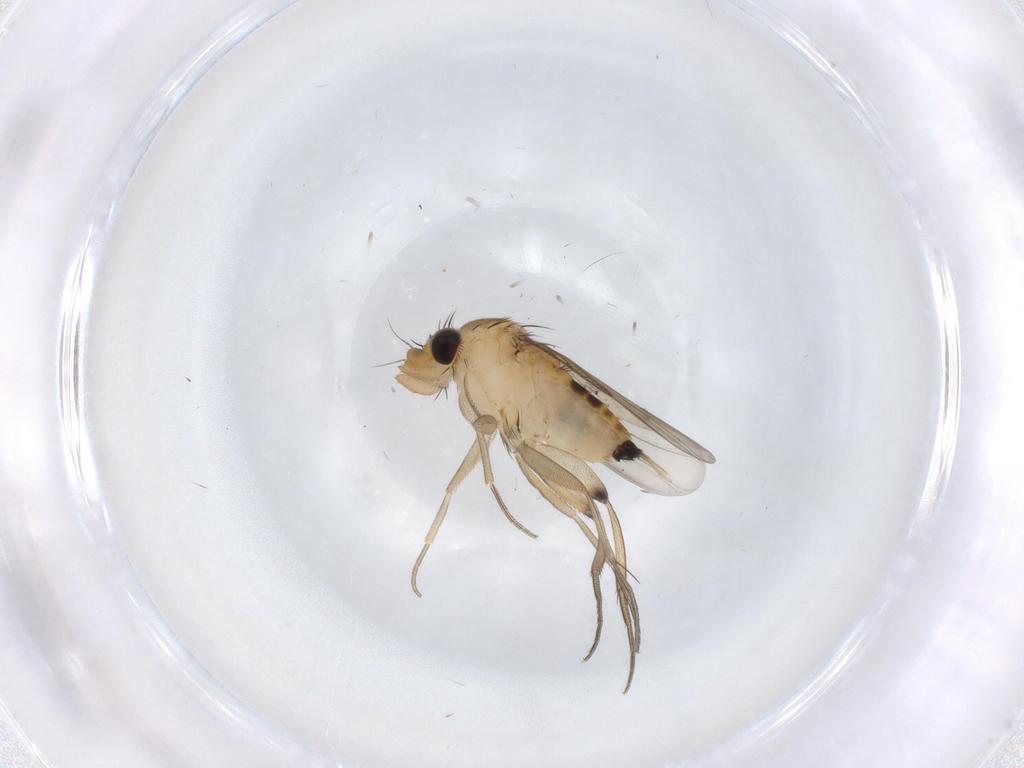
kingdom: Animalia
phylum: Arthropoda
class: Insecta
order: Diptera
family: Phoridae
